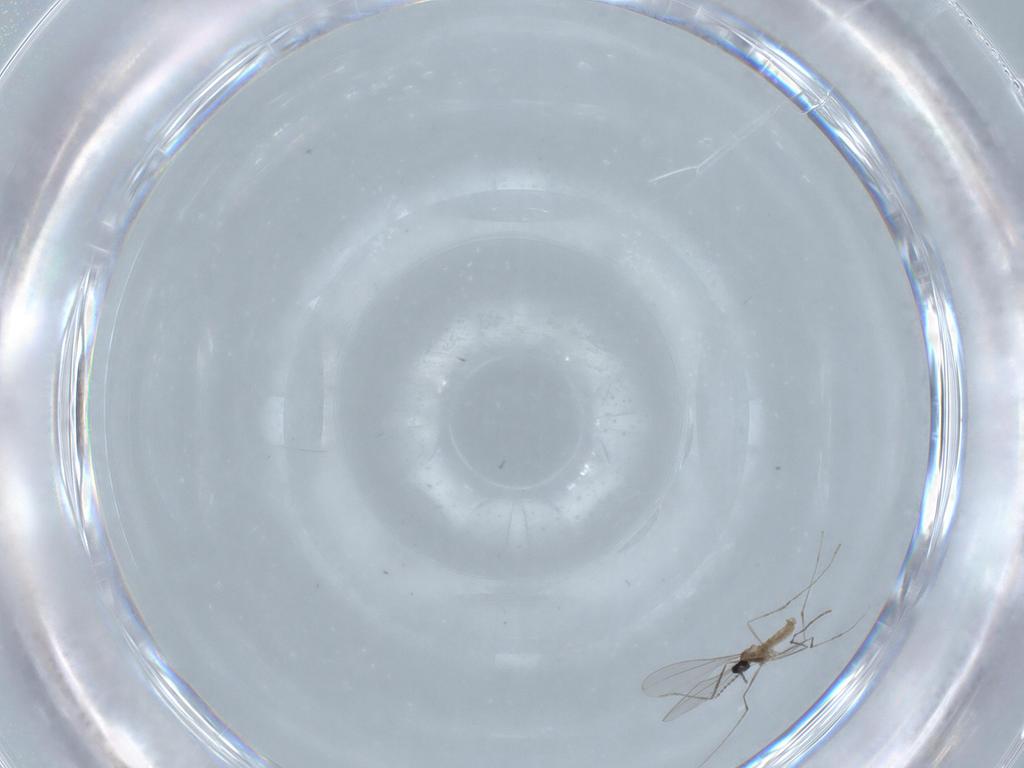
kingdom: Animalia
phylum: Arthropoda
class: Insecta
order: Diptera
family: Cecidomyiidae
